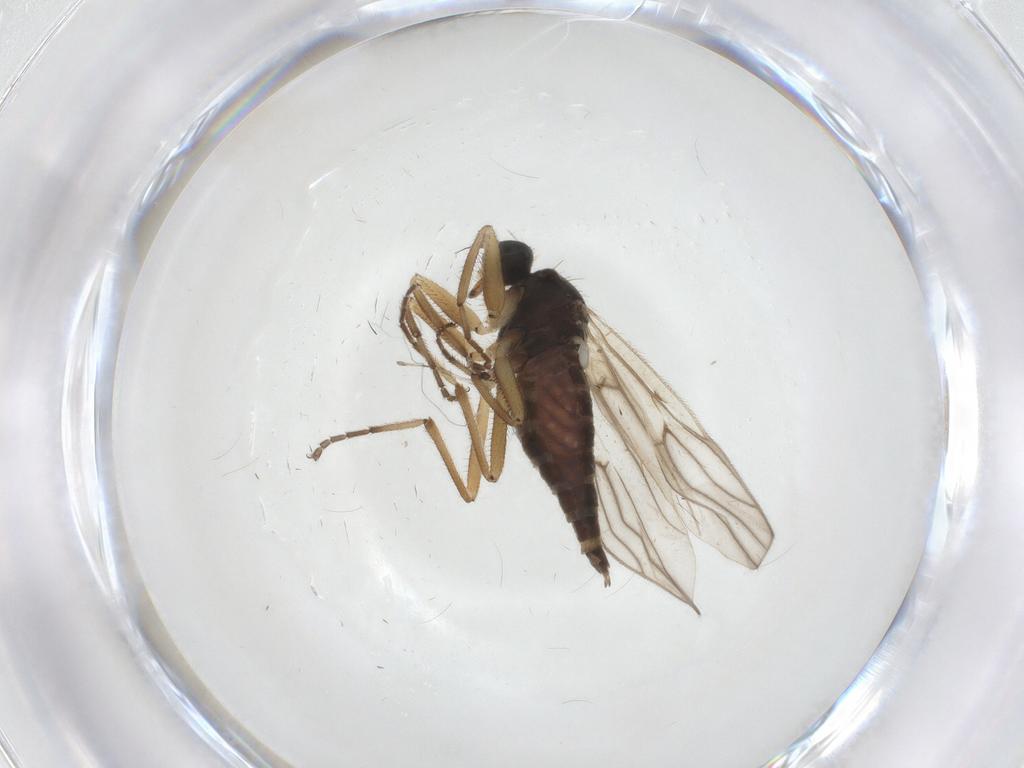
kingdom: Animalia
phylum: Arthropoda
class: Insecta
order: Diptera
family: Hybotidae
